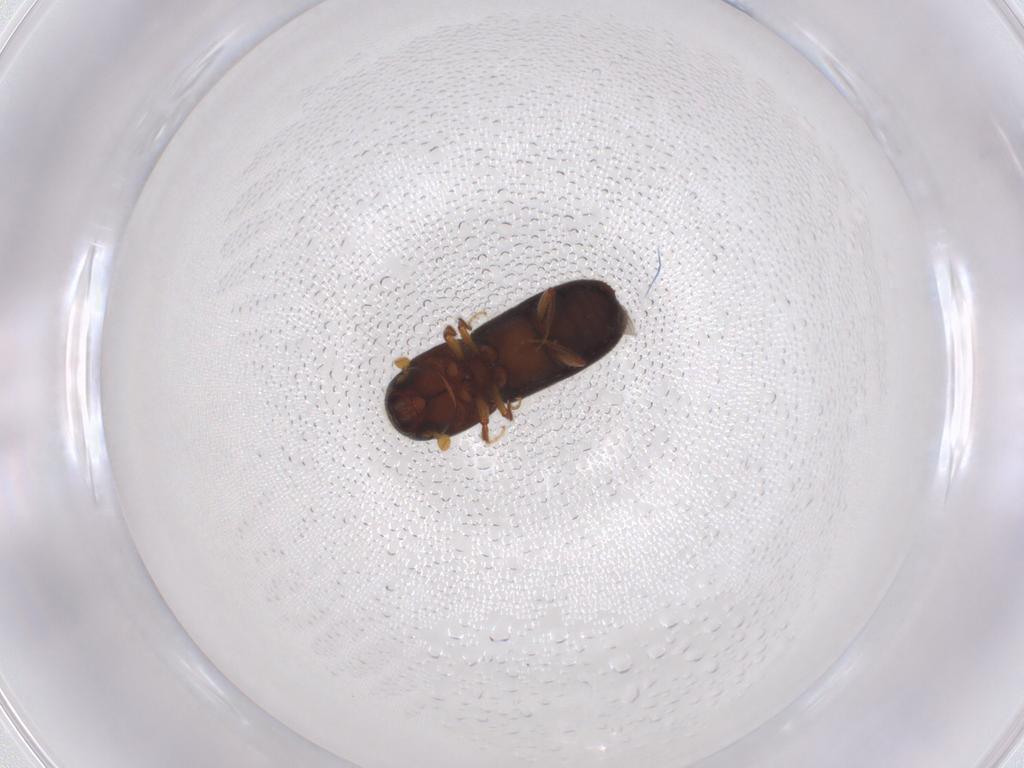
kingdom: Animalia
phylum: Arthropoda
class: Insecta
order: Coleoptera
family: Curculionidae
